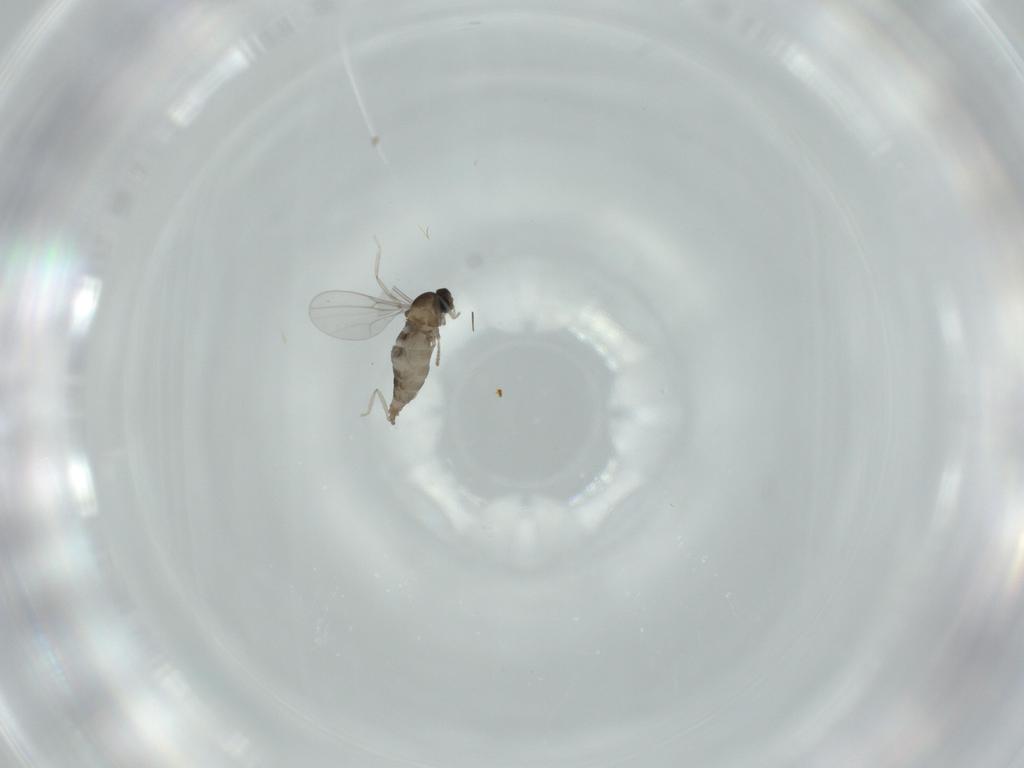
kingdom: Animalia
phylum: Arthropoda
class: Insecta
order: Diptera
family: Cecidomyiidae
